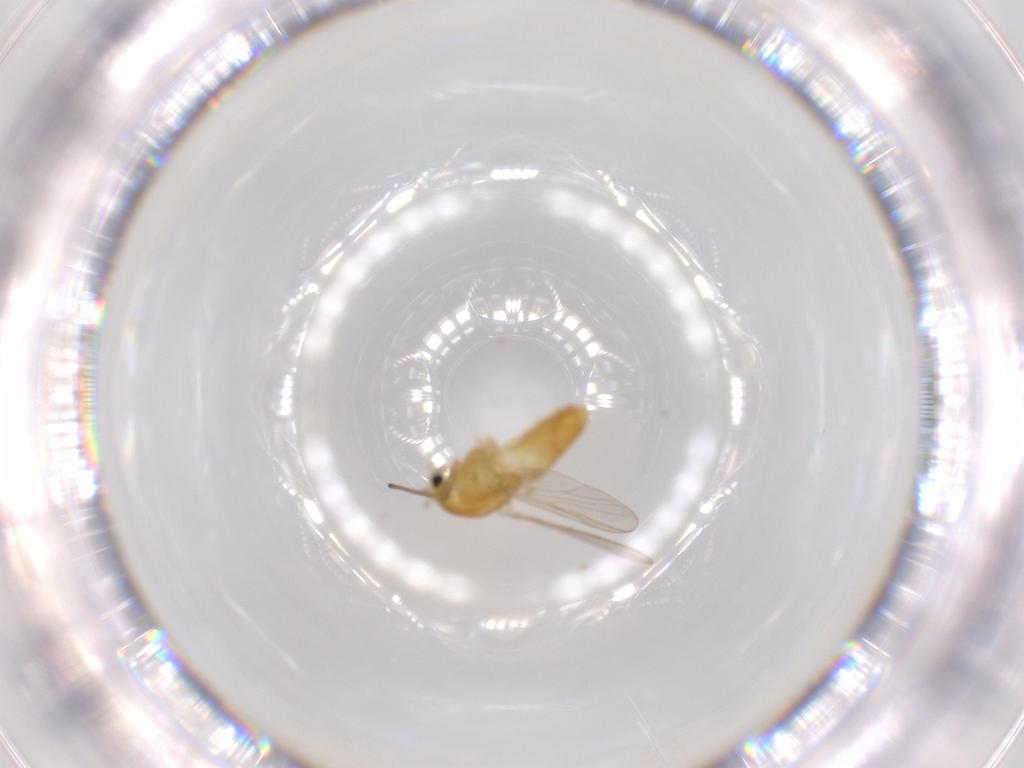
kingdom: Animalia
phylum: Arthropoda
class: Insecta
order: Diptera
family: Chironomidae
